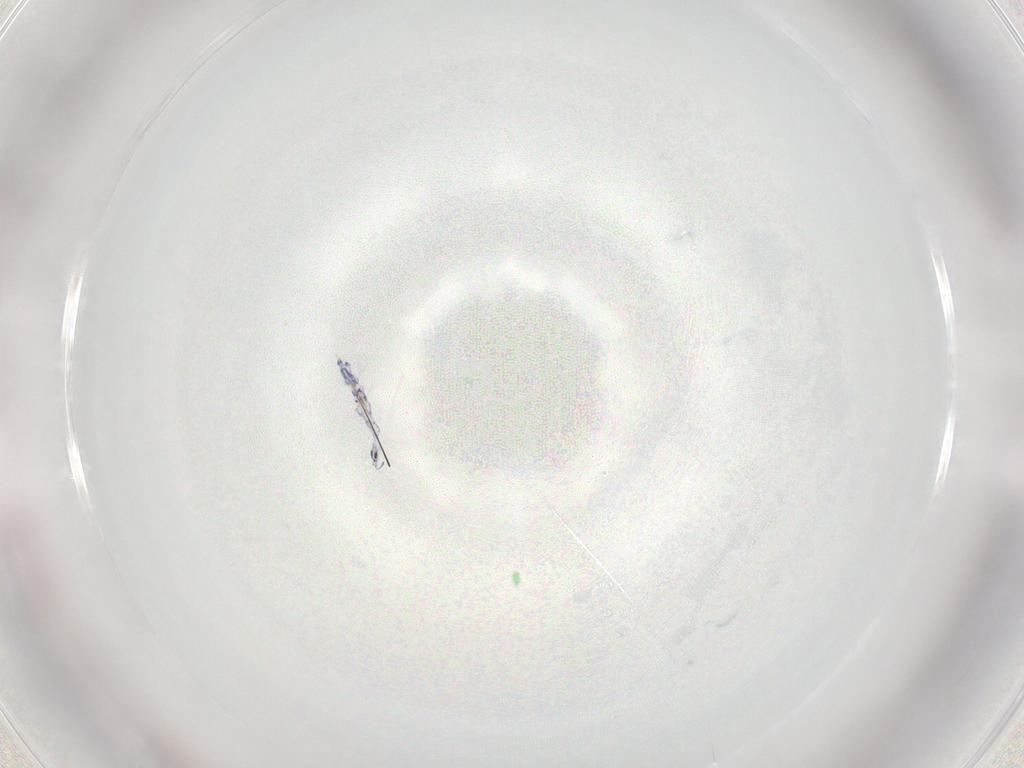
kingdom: Animalia
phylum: Arthropoda
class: Collembola
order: Entomobryomorpha
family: Entomobryidae
